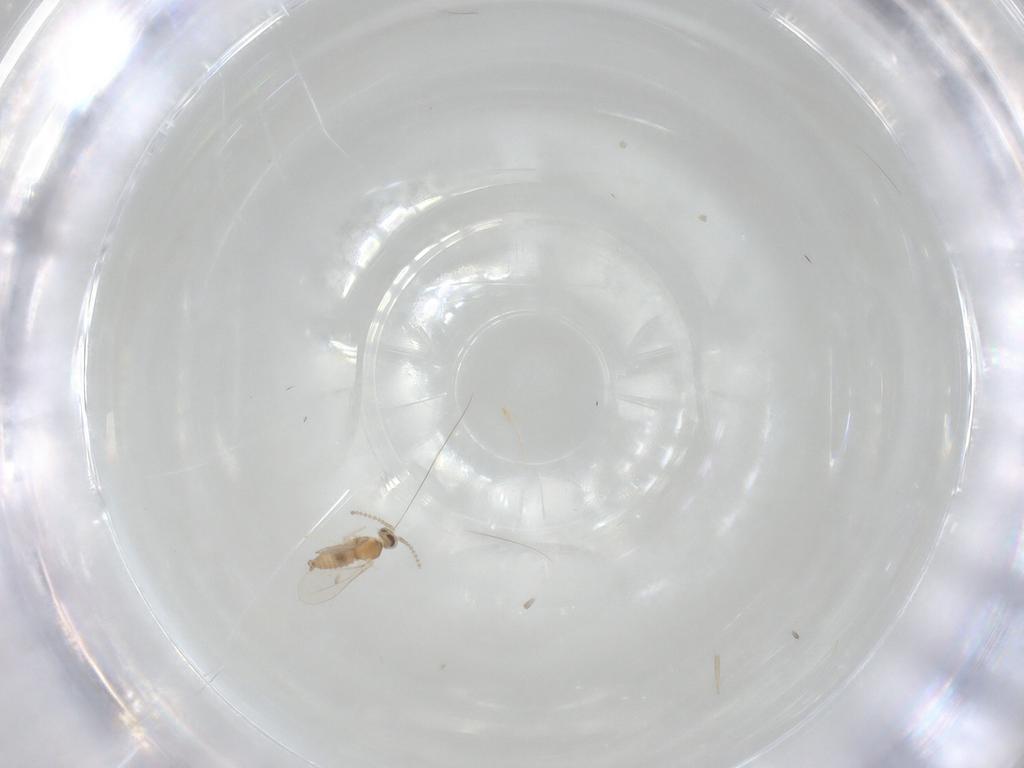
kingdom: Animalia
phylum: Arthropoda
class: Insecta
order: Diptera
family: Cecidomyiidae
